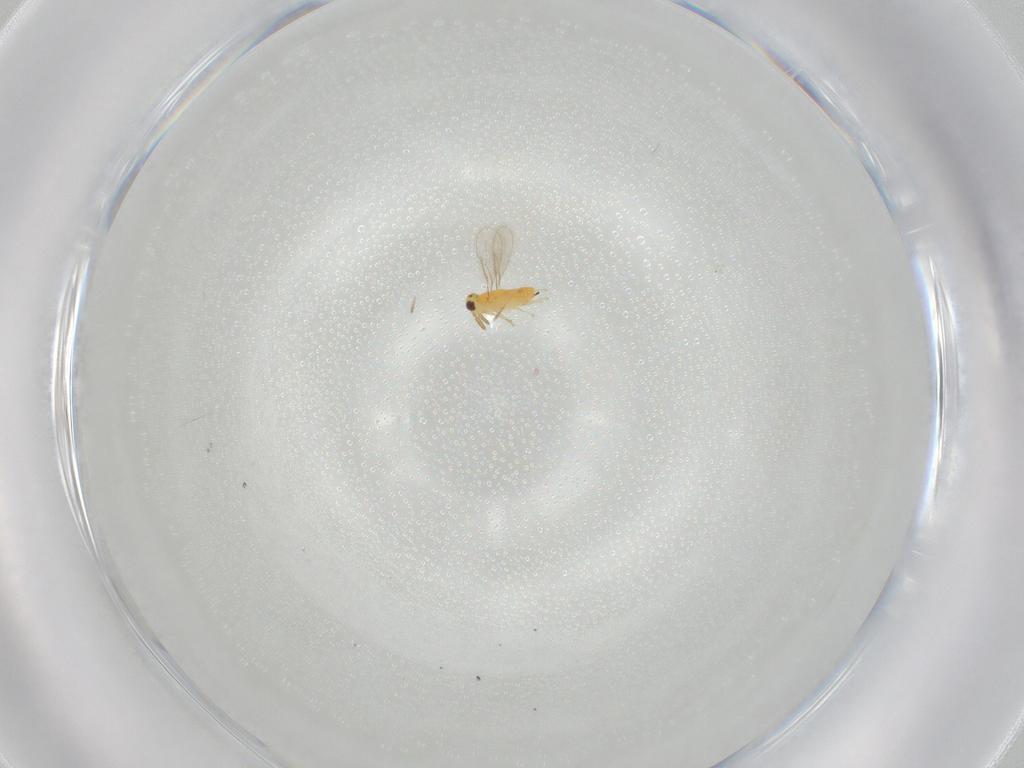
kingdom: Animalia
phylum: Arthropoda
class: Insecta
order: Hymenoptera
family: Aphelinidae
